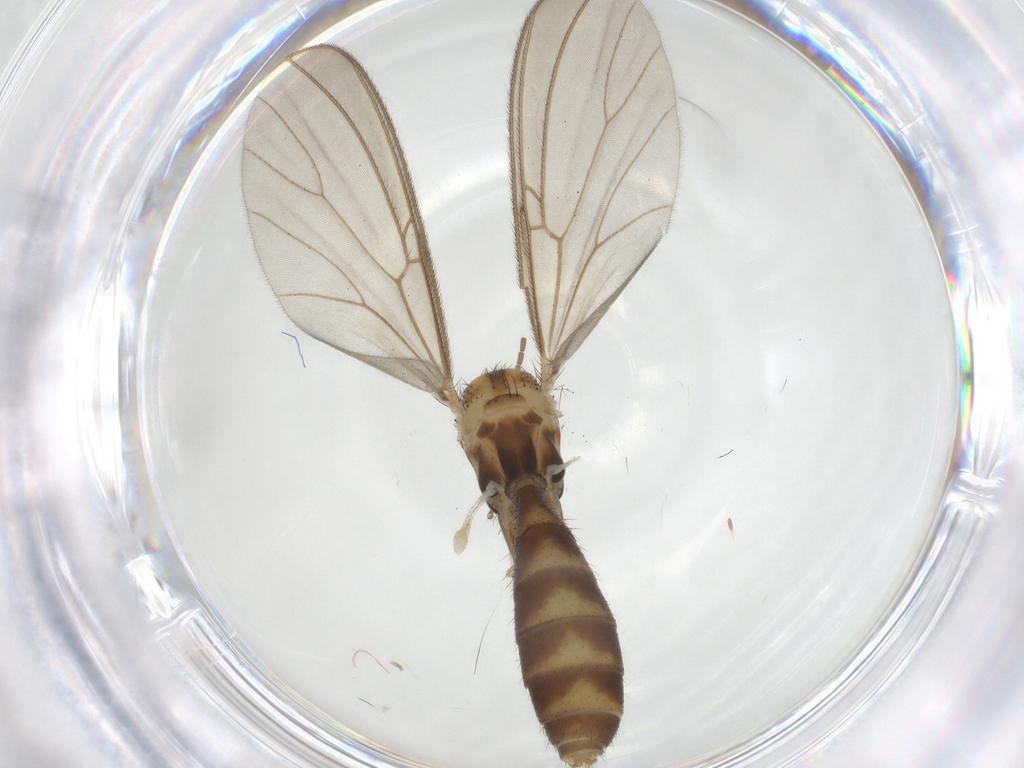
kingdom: Animalia
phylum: Arthropoda
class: Insecta
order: Diptera
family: Mycetophilidae
